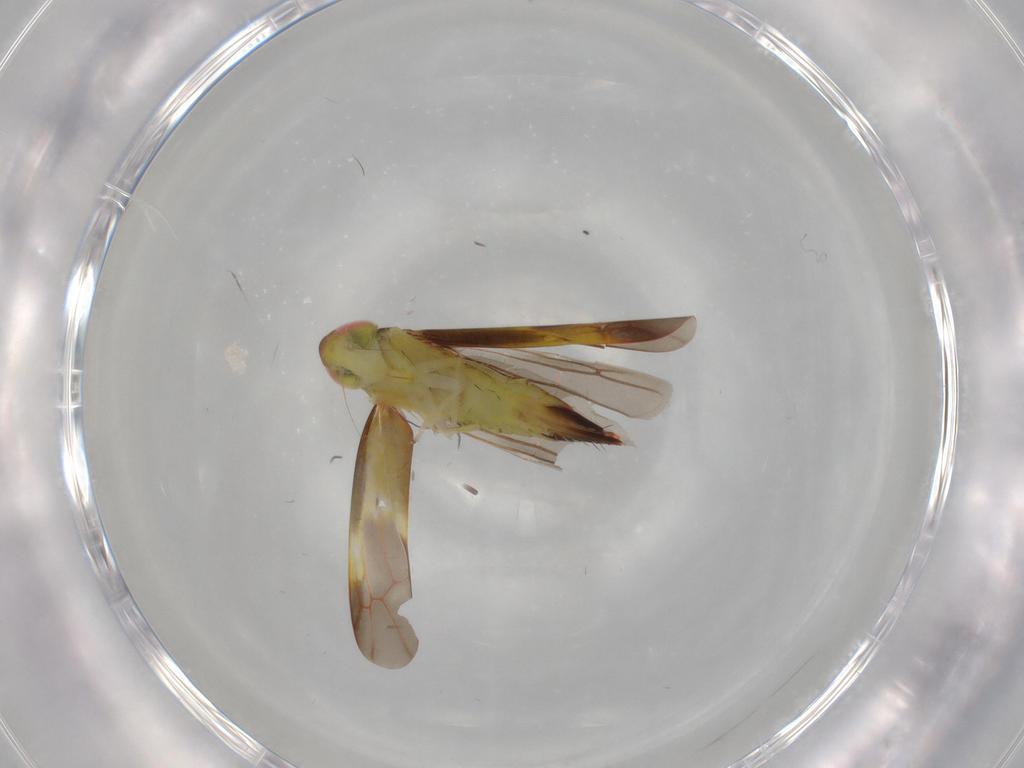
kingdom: Animalia
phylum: Arthropoda
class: Insecta
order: Hemiptera
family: Cicadellidae
